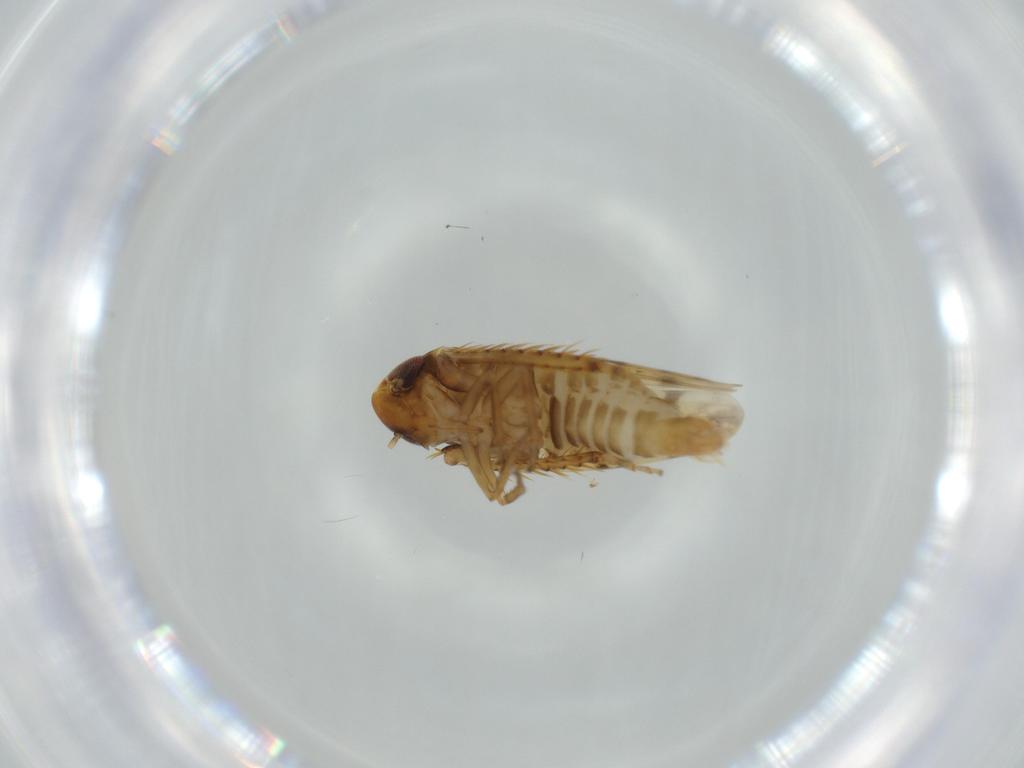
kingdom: Animalia
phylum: Arthropoda
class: Insecta
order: Hemiptera
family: Cicadellidae
